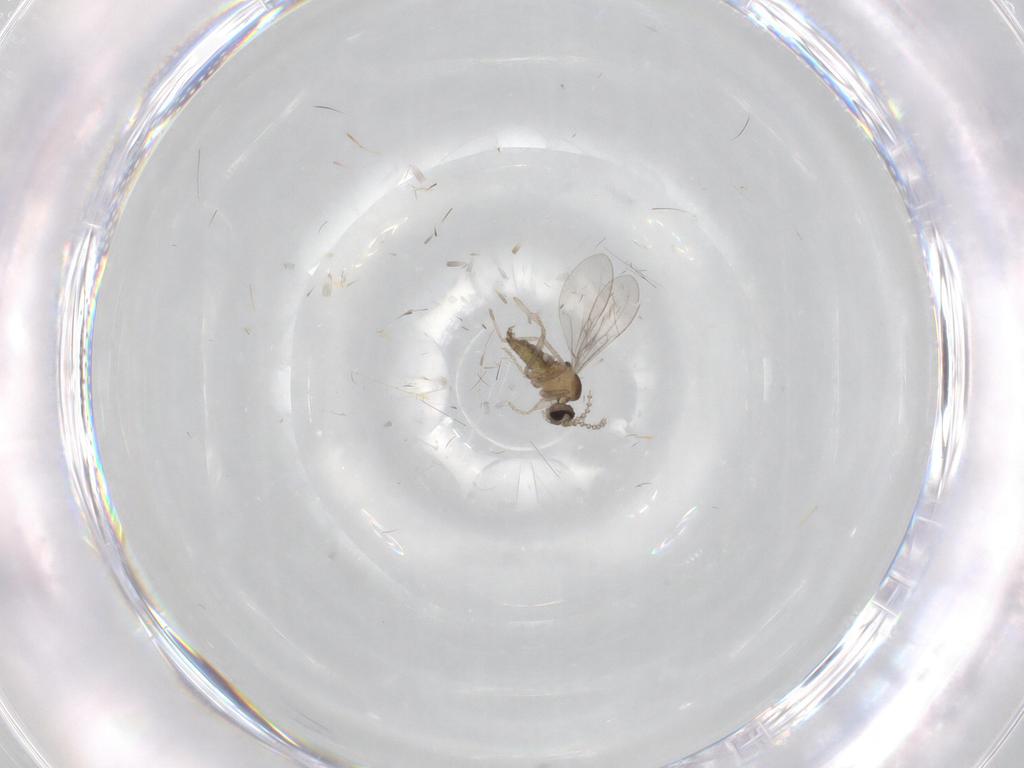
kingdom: Animalia
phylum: Arthropoda
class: Insecta
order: Diptera
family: Cecidomyiidae
